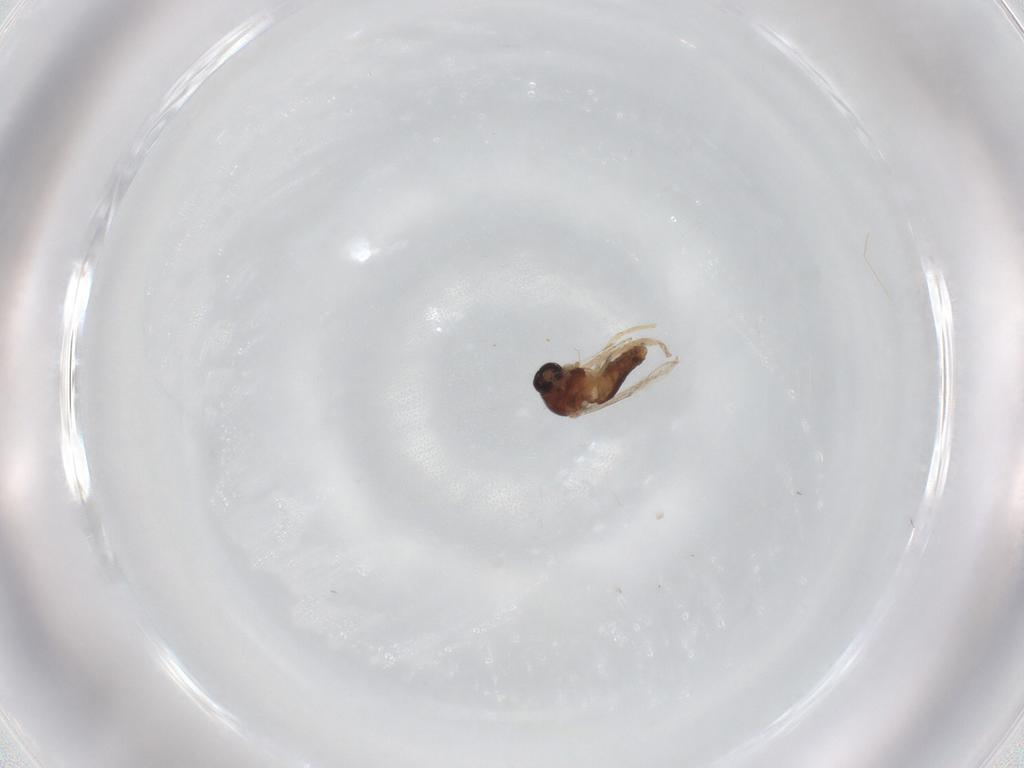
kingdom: Animalia
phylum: Arthropoda
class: Insecta
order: Diptera
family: Ceratopogonidae
